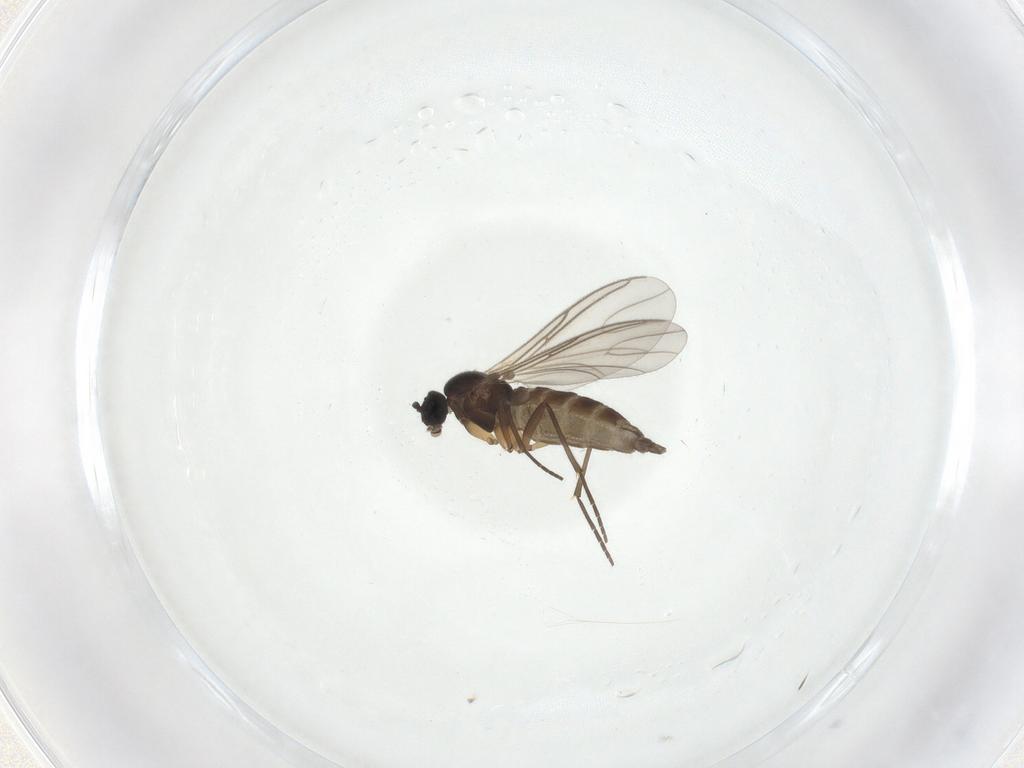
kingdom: Animalia
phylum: Arthropoda
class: Insecta
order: Diptera
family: Sciaridae
